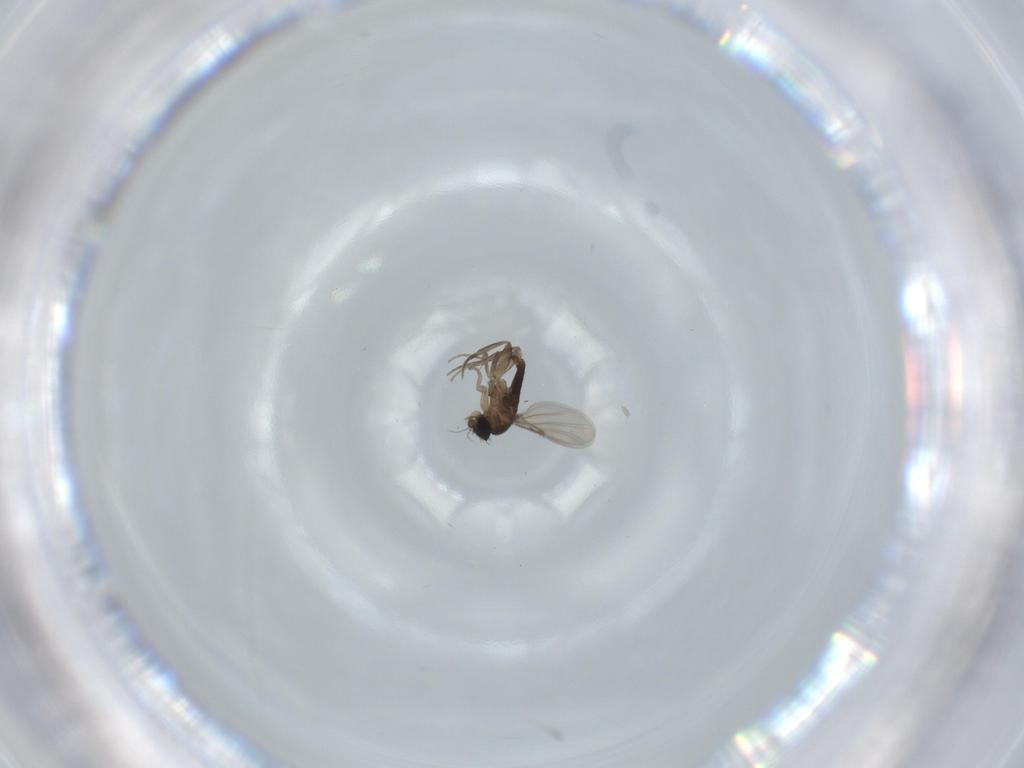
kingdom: Animalia
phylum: Arthropoda
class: Insecta
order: Diptera
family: Phoridae
